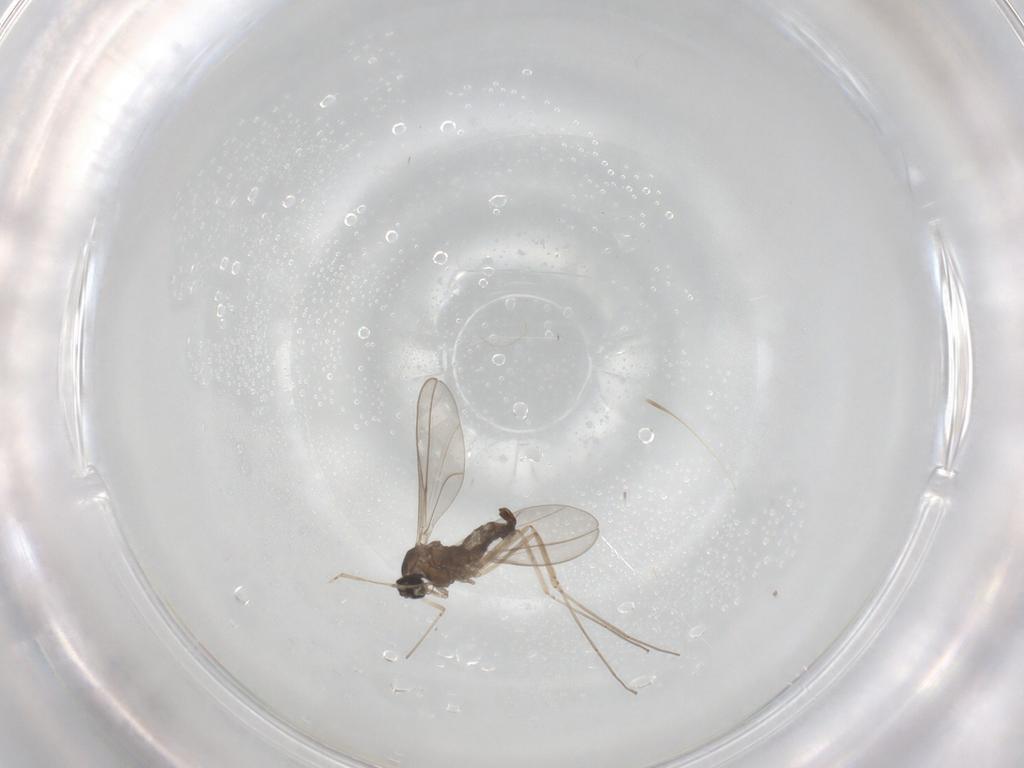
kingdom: Animalia
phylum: Arthropoda
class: Insecta
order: Diptera
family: Cecidomyiidae
